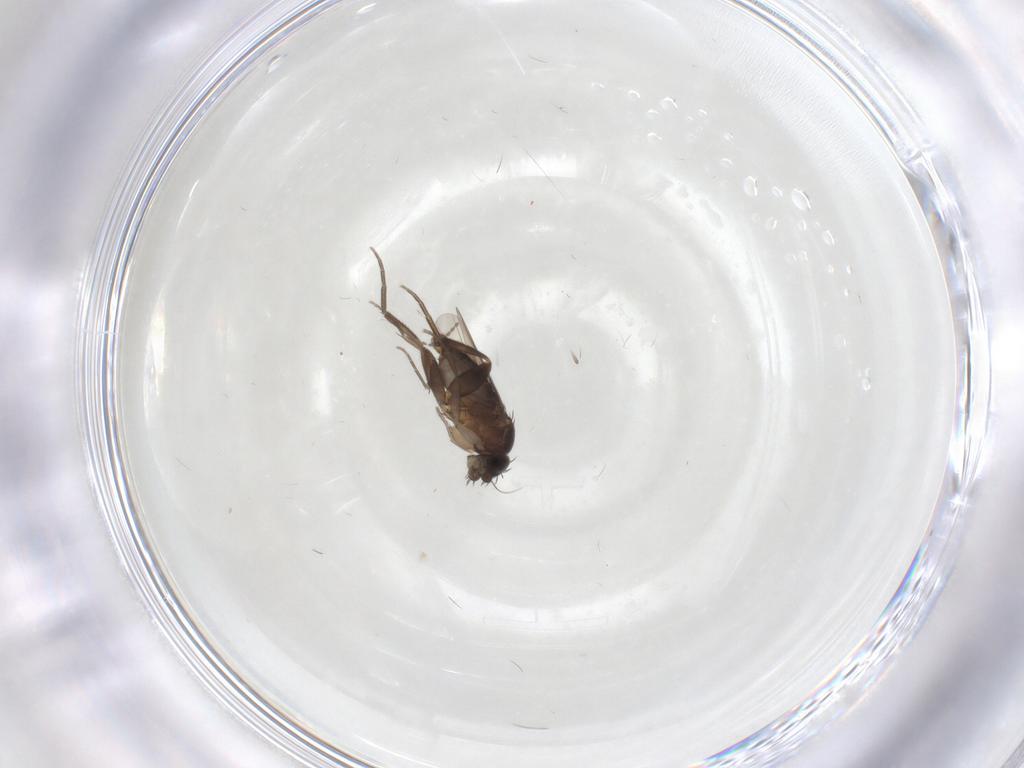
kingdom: Animalia
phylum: Arthropoda
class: Insecta
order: Diptera
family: Phoridae
